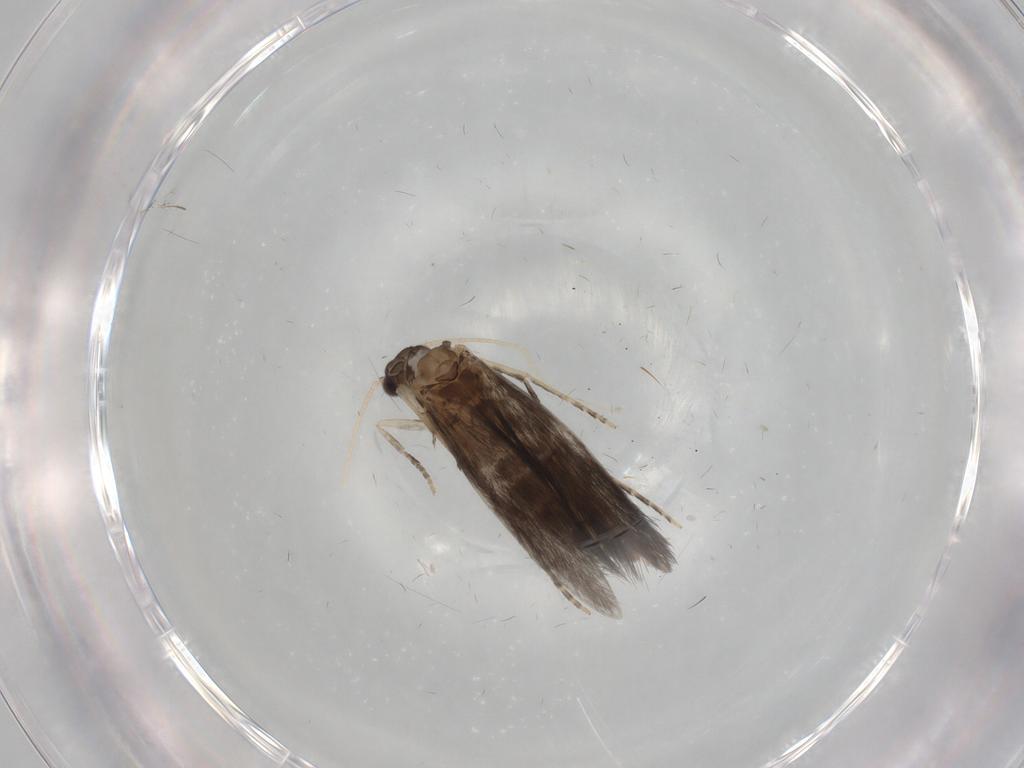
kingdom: Animalia
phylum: Arthropoda
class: Insecta
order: Trichoptera
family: Hydroptilidae
